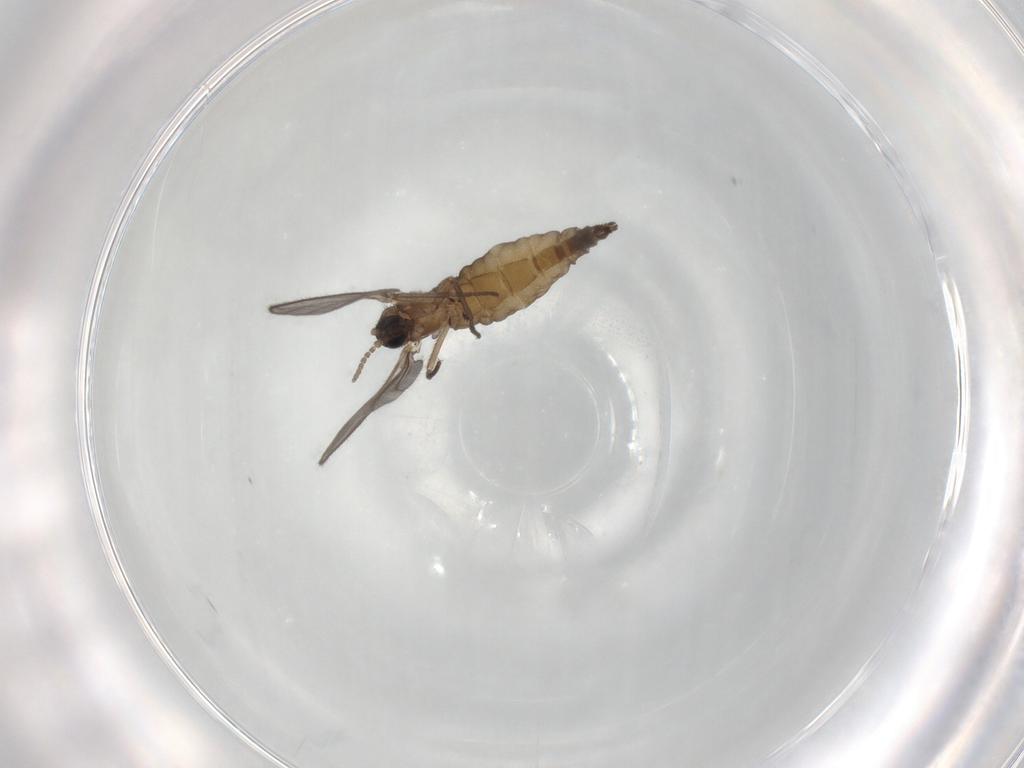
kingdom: Animalia
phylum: Arthropoda
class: Insecta
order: Diptera
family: Sciaridae
